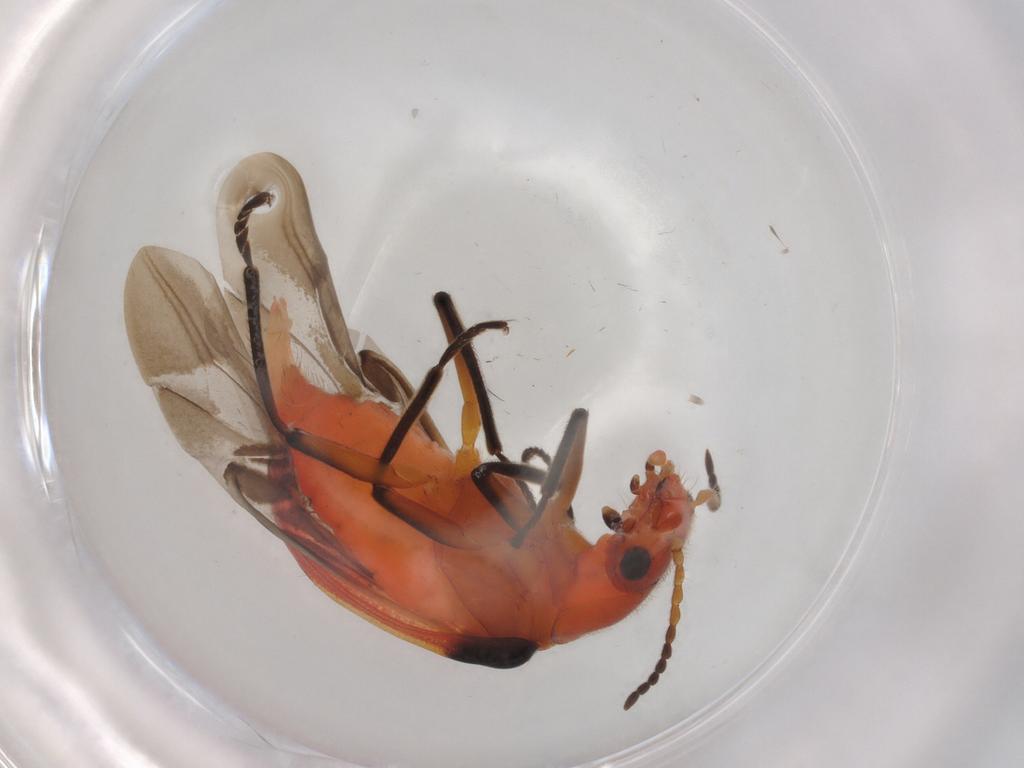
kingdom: Animalia
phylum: Arthropoda
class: Insecta
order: Coleoptera
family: Melyridae
